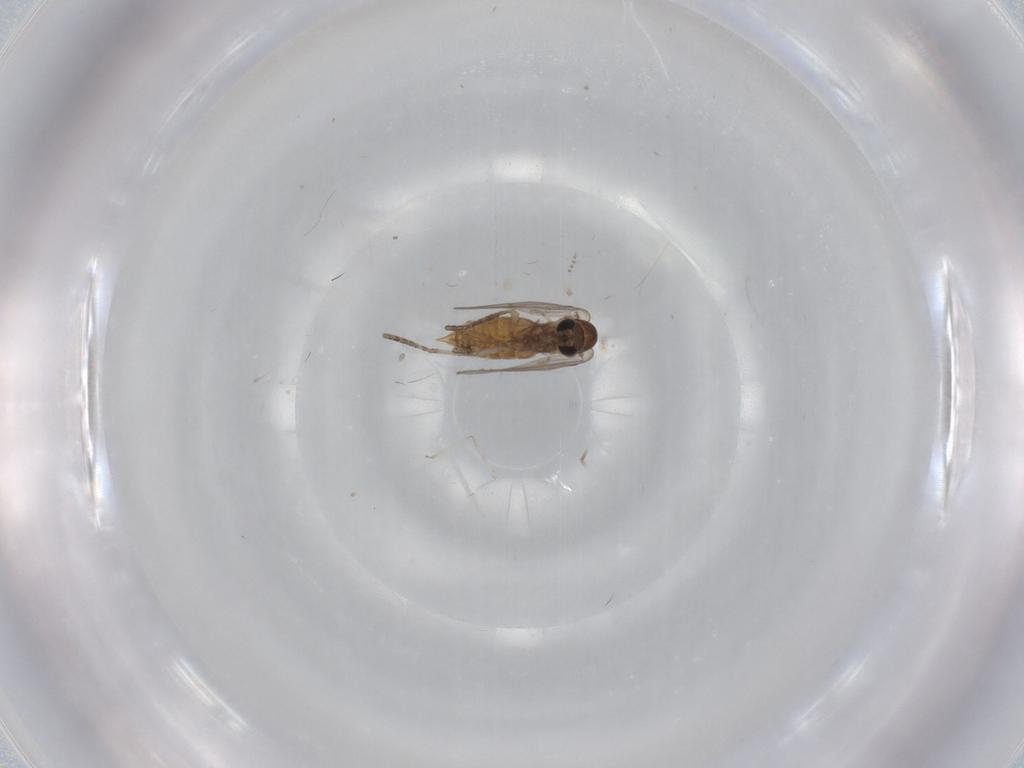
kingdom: Animalia
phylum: Arthropoda
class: Insecta
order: Diptera
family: Cecidomyiidae
